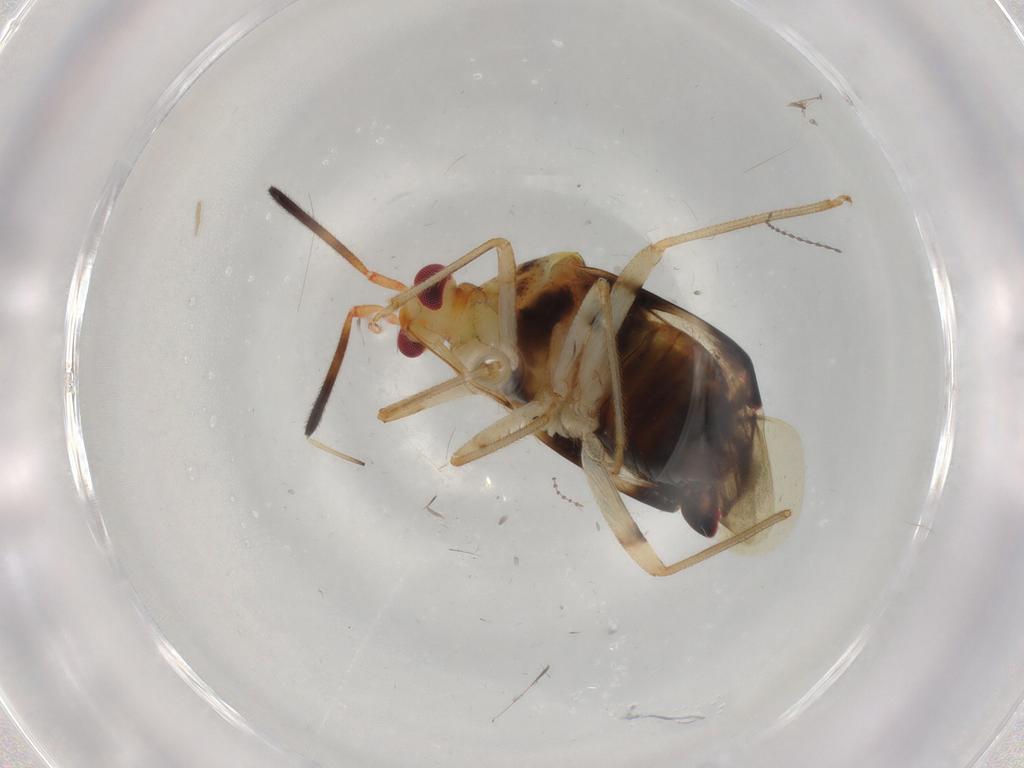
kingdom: Animalia
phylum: Arthropoda
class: Insecta
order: Hemiptera
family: Miridae
